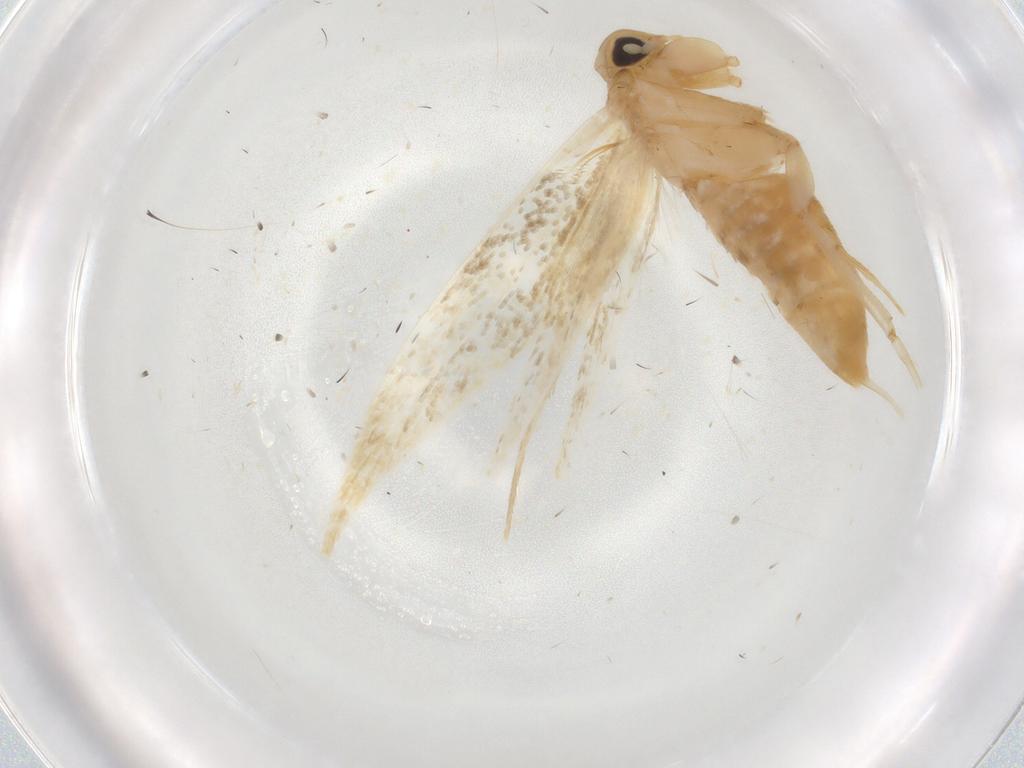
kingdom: Animalia
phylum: Arthropoda
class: Insecta
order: Lepidoptera
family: Tineidae
